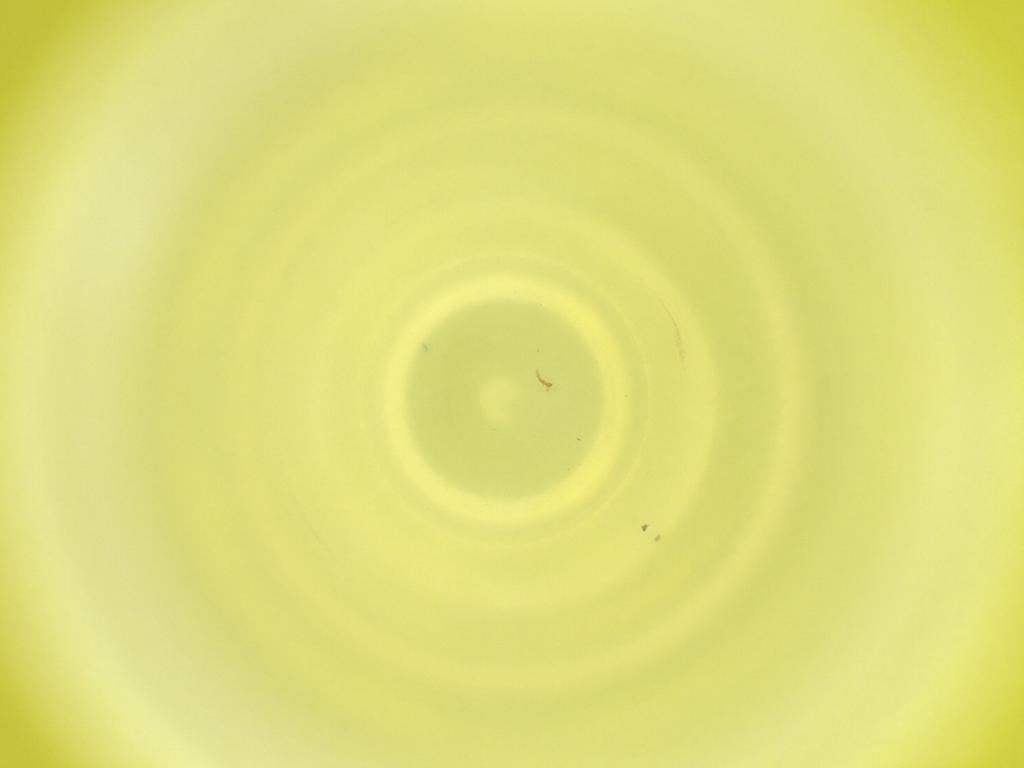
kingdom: Animalia
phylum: Arthropoda
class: Insecta
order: Diptera
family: Cecidomyiidae
